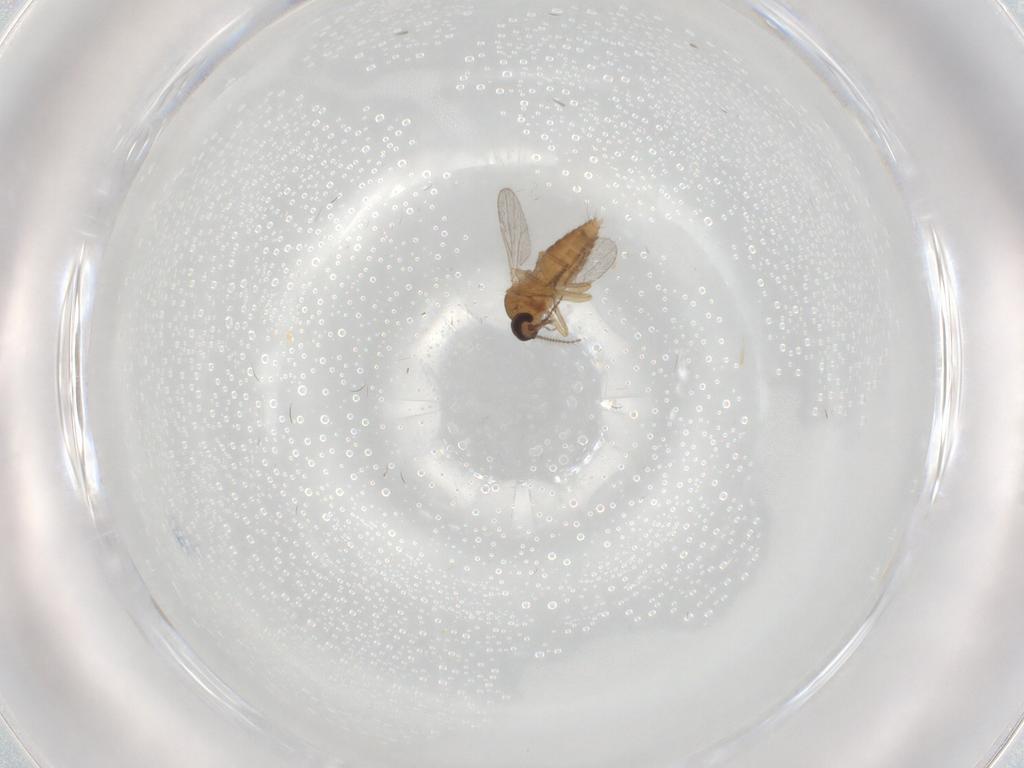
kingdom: Animalia
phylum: Arthropoda
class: Insecta
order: Diptera
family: Ceratopogonidae
